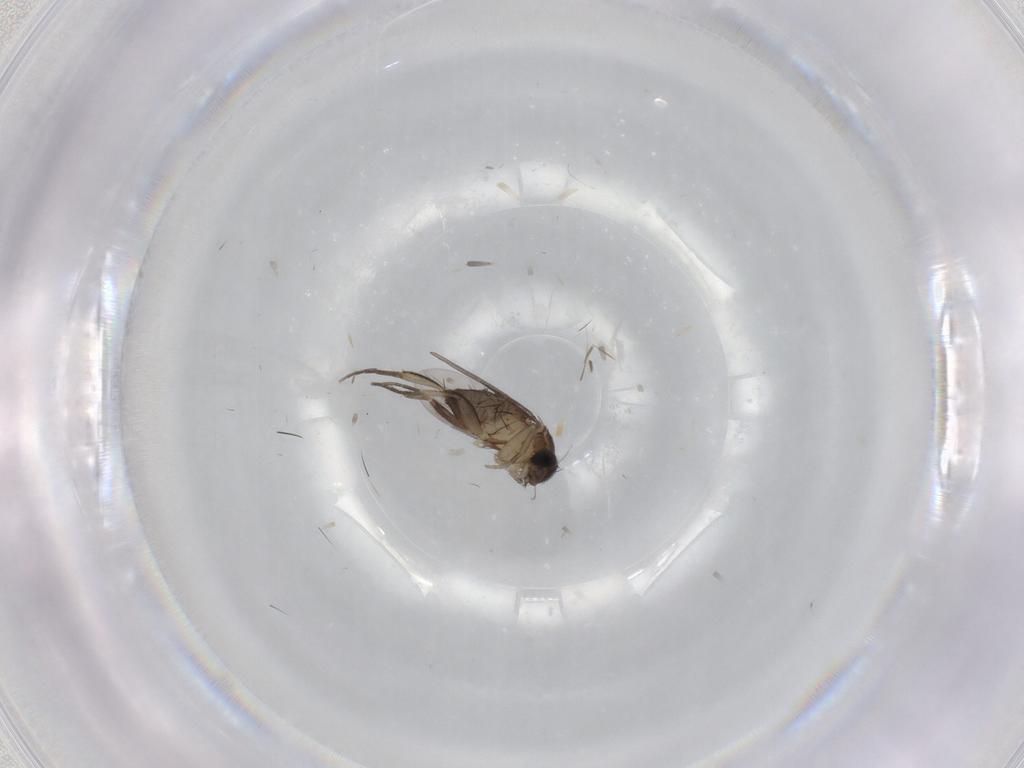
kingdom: Animalia
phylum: Arthropoda
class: Insecta
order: Diptera
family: Phoridae
